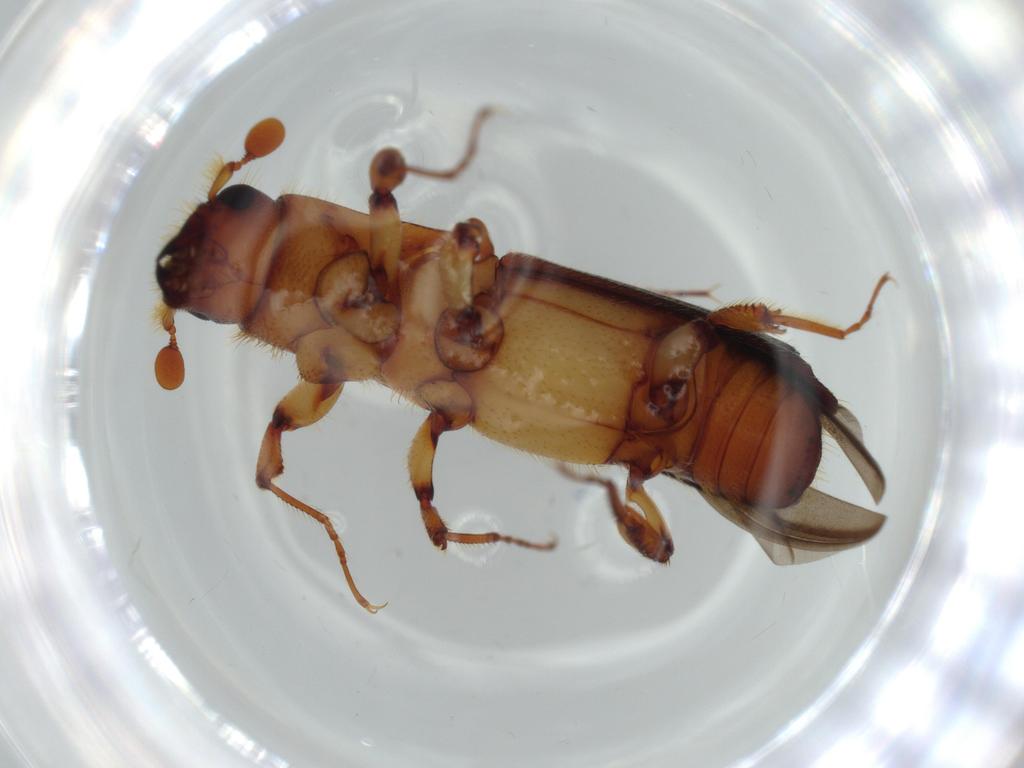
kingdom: Animalia
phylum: Arthropoda
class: Insecta
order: Coleoptera
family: Curculionidae
